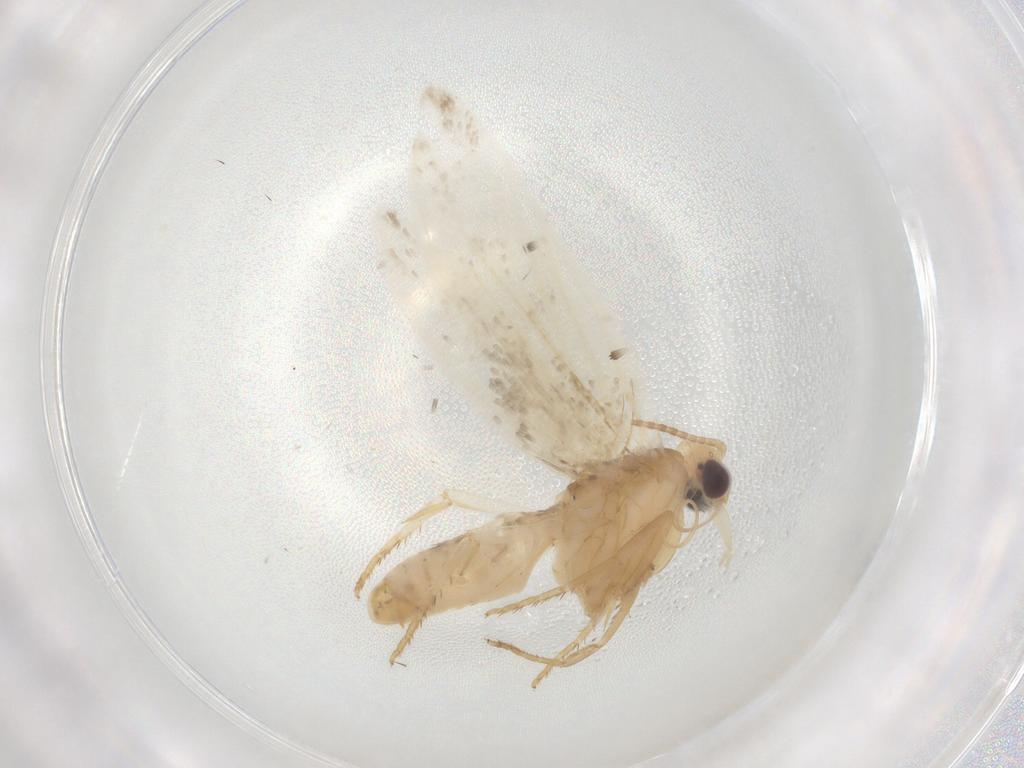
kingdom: Animalia
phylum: Arthropoda
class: Insecta
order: Lepidoptera
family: Ypsolophidae
